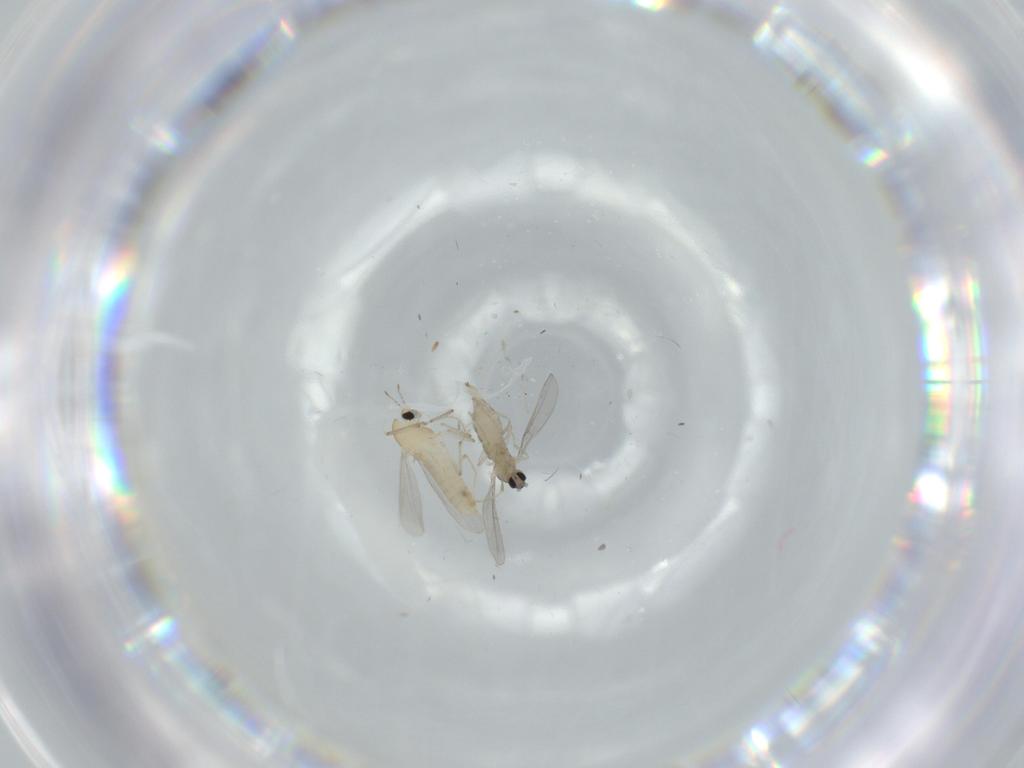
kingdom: Animalia
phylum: Arthropoda
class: Insecta
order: Diptera
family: Chironomidae
